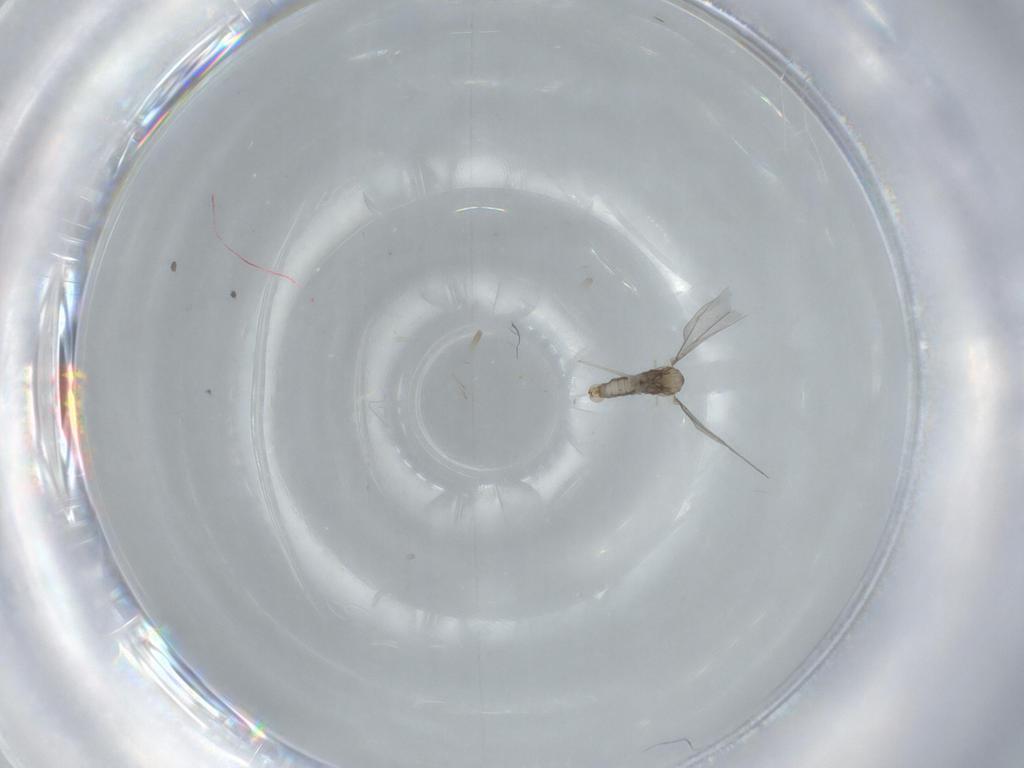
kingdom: Animalia
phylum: Arthropoda
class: Insecta
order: Diptera
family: Cecidomyiidae
